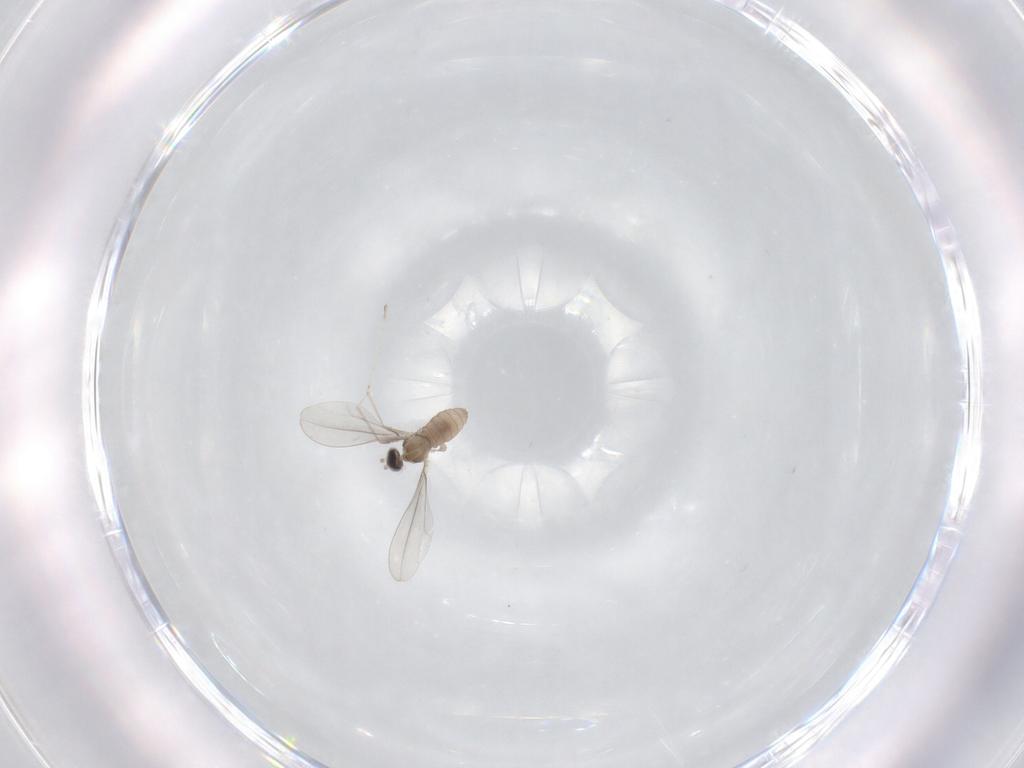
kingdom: Animalia
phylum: Arthropoda
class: Insecta
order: Diptera
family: Cecidomyiidae
